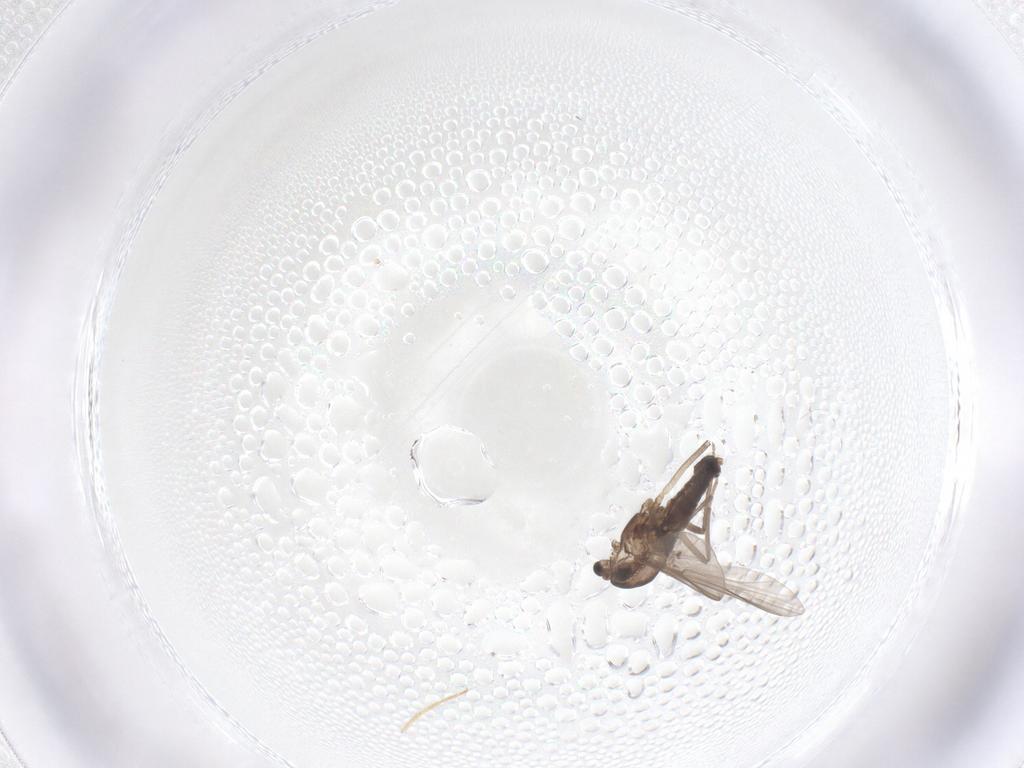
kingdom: Animalia
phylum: Arthropoda
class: Insecta
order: Diptera
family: Chironomidae
